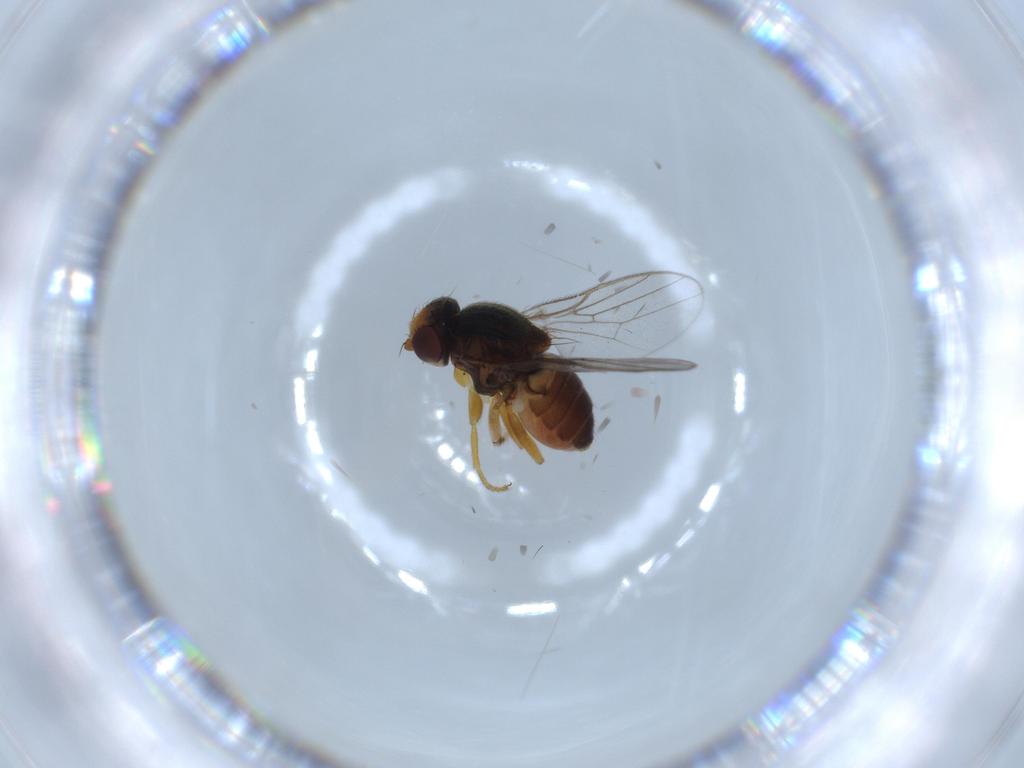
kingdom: Animalia
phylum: Arthropoda
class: Insecta
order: Diptera
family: Chloropidae
